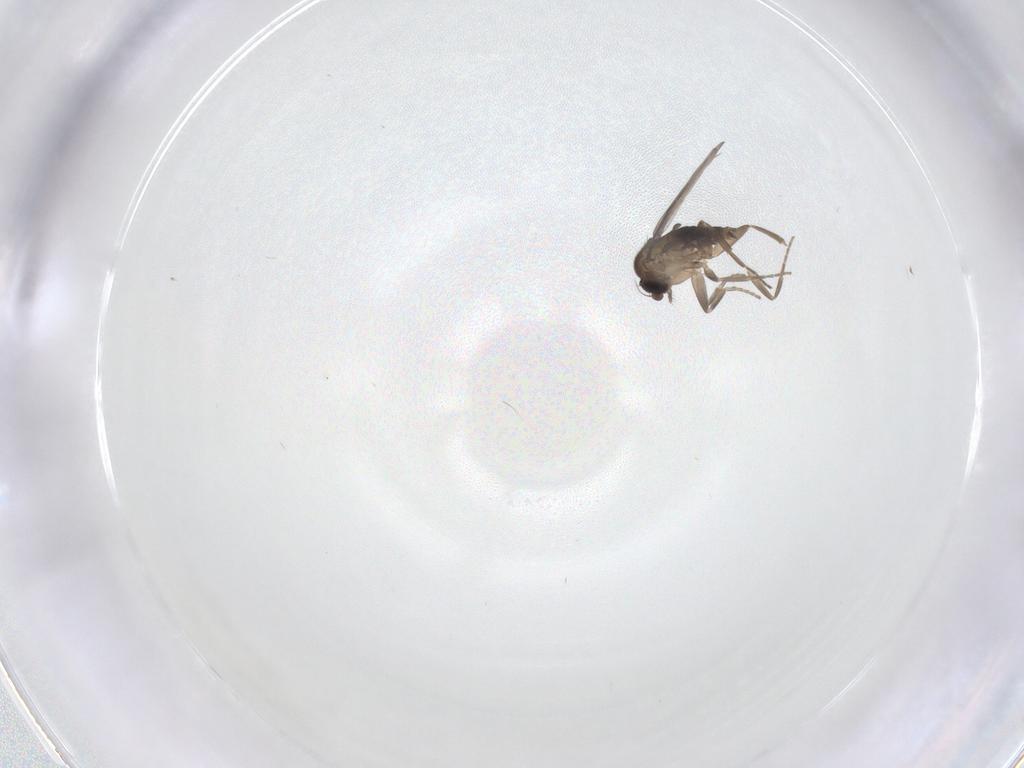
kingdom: Animalia
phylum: Arthropoda
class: Insecta
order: Diptera
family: Phoridae
